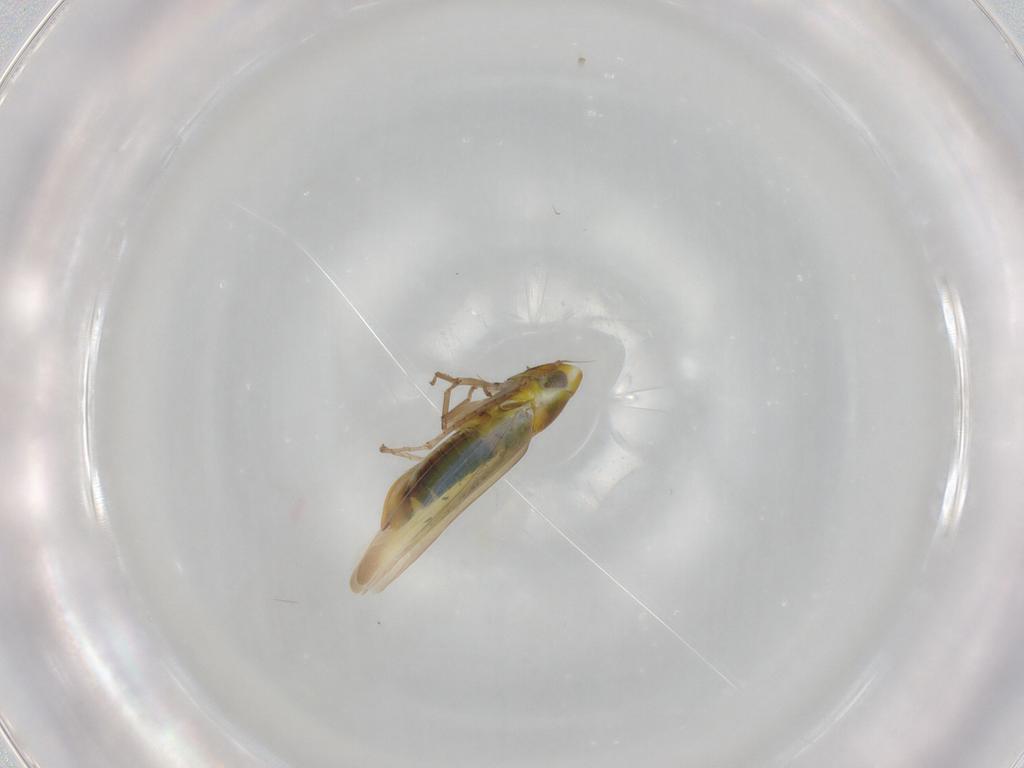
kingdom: Animalia
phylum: Arthropoda
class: Insecta
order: Hemiptera
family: Cicadellidae
